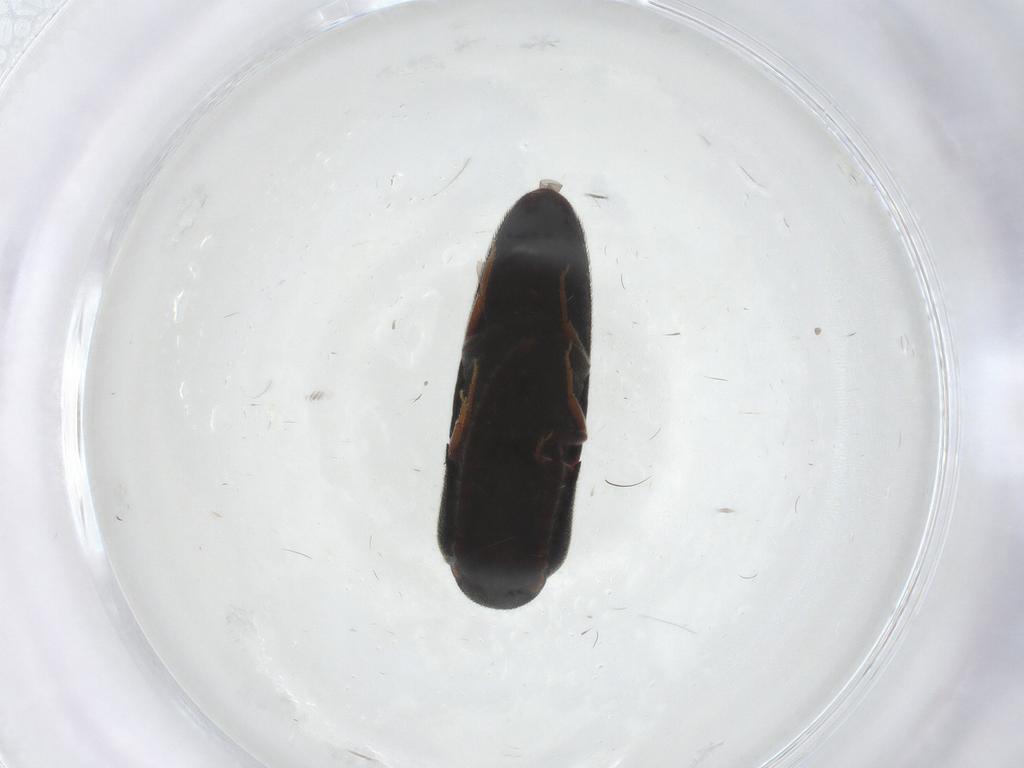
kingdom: Animalia
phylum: Arthropoda
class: Insecta
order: Coleoptera
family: Eucnemidae
